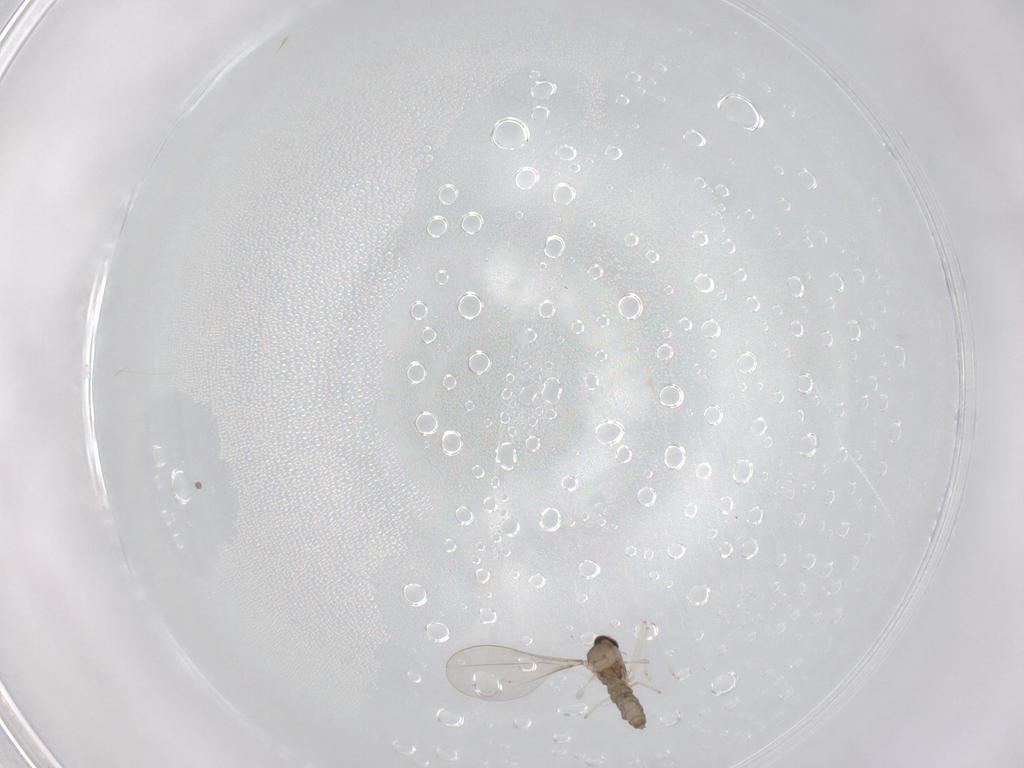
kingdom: Animalia
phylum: Arthropoda
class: Insecta
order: Diptera
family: Cecidomyiidae
